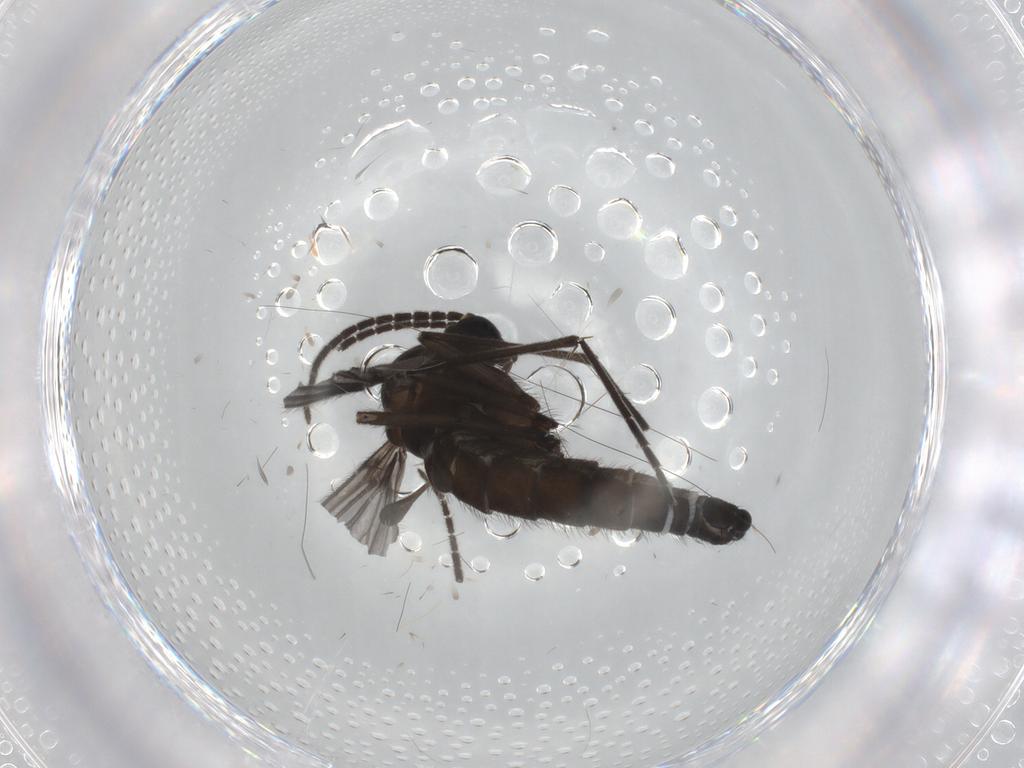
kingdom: Animalia
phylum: Arthropoda
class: Insecta
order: Diptera
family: Sciaridae
